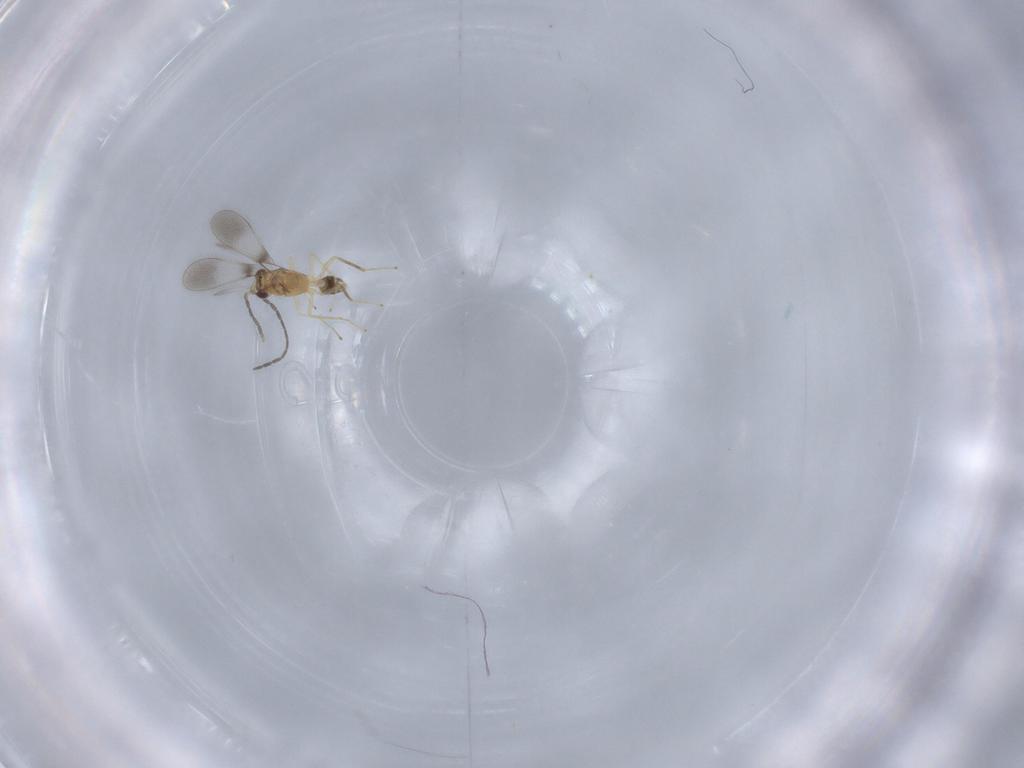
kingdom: Animalia
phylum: Arthropoda
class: Insecta
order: Hymenoptera
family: Mymaridae
